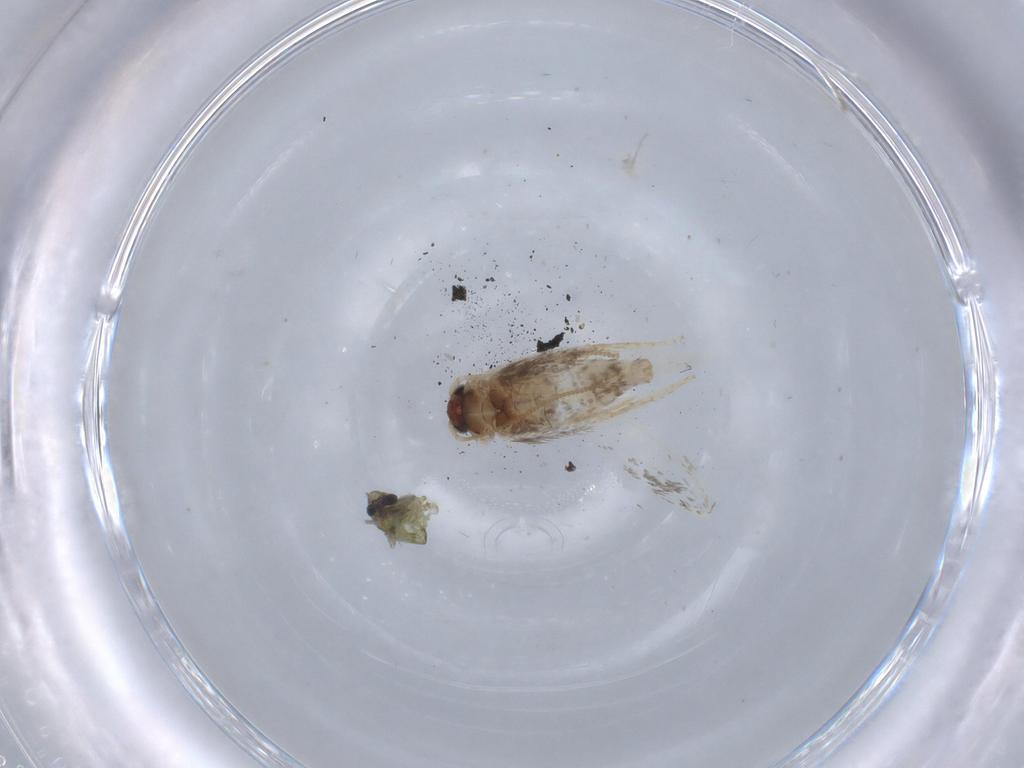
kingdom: Animalia
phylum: Arthropoda
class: Insecta
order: Lepidoptera
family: Nepticulidae
